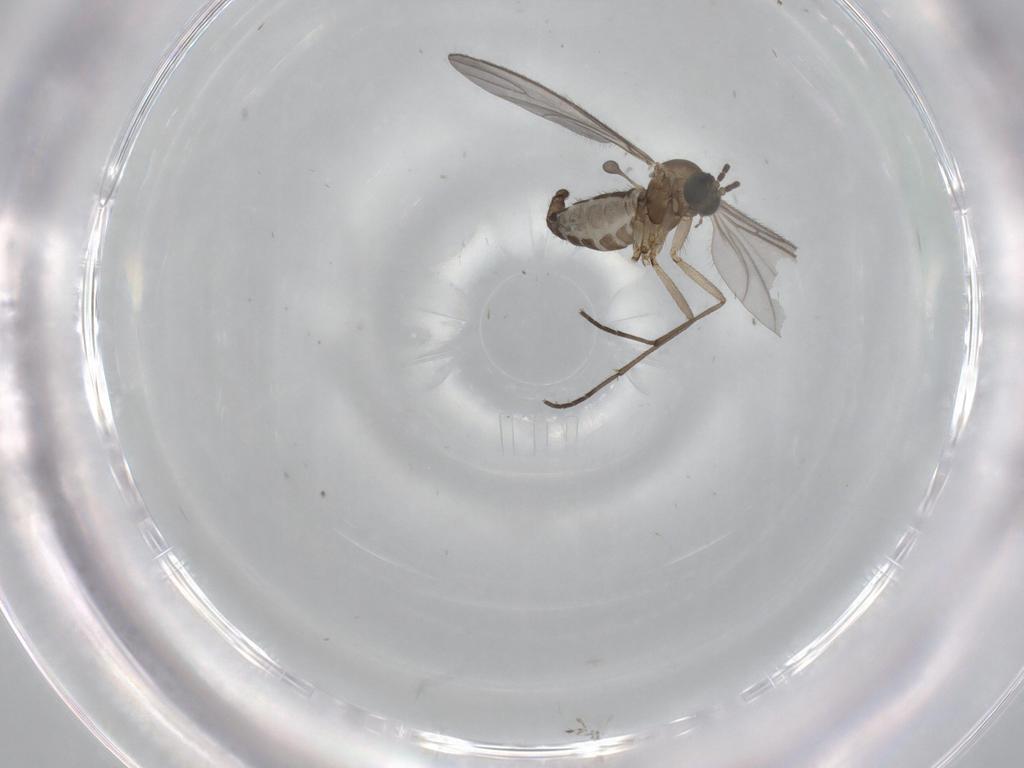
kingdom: Animalia
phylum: Arthropoda
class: Insecta
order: Diptera
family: Sciaridae
